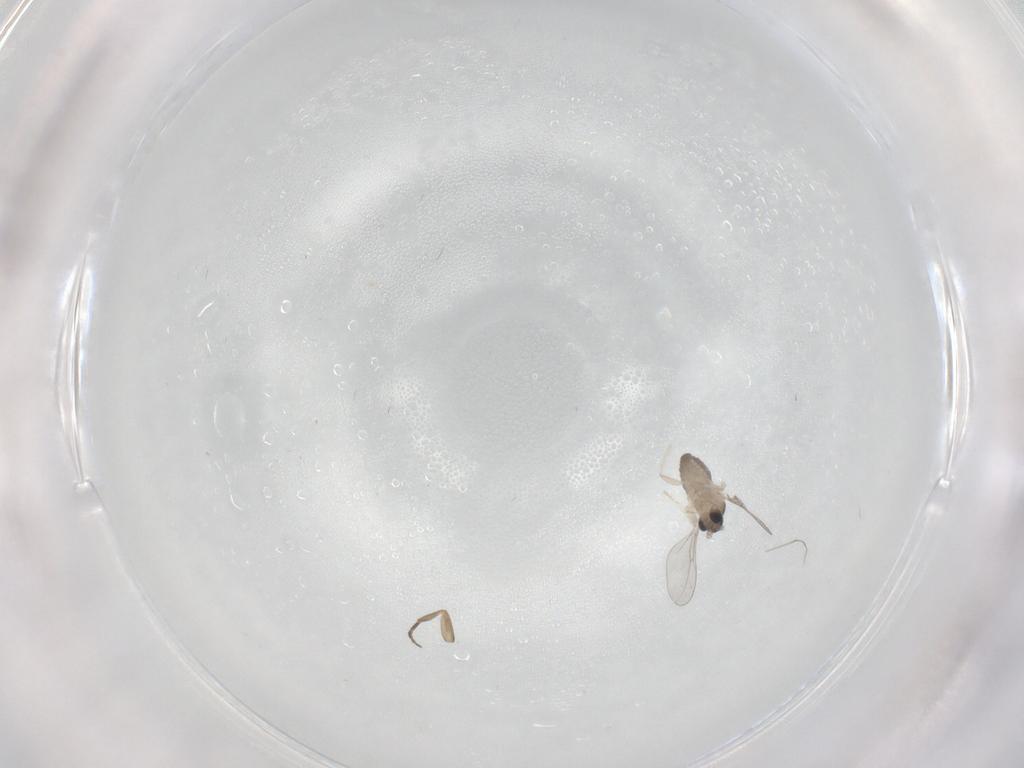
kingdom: Animalia
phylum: Arthropoda
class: Insecta
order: Diptera
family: Cecidomyiidae
